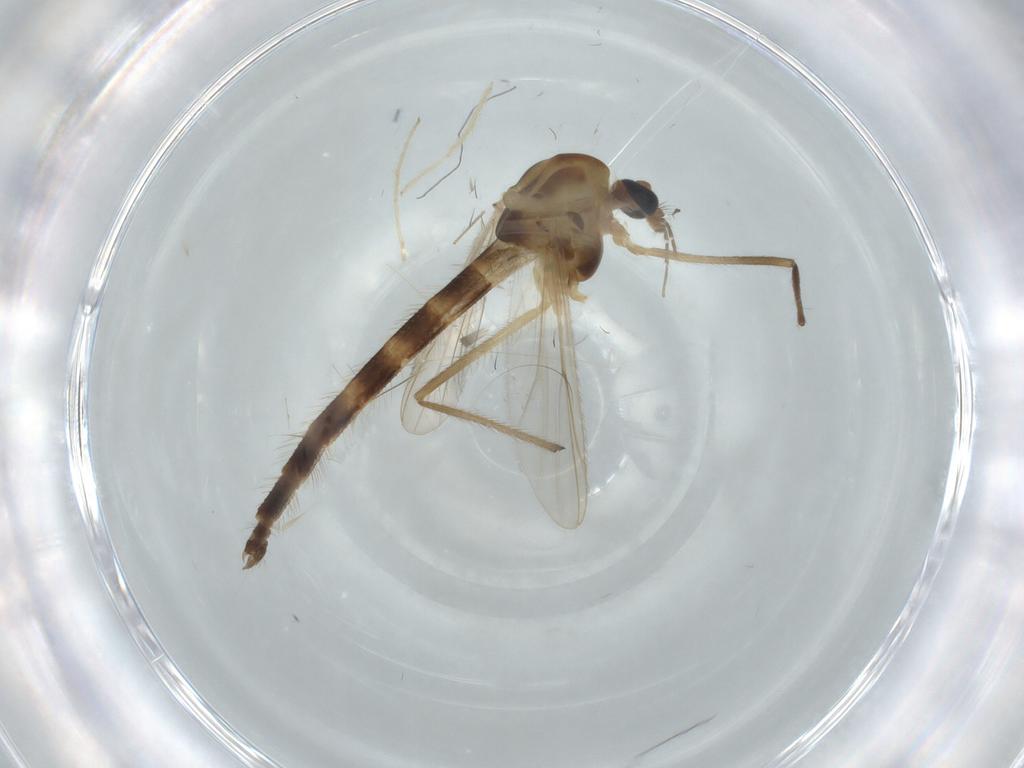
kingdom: Animalia
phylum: Arthropoda
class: Insecta
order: Diptera
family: Chironomidae
